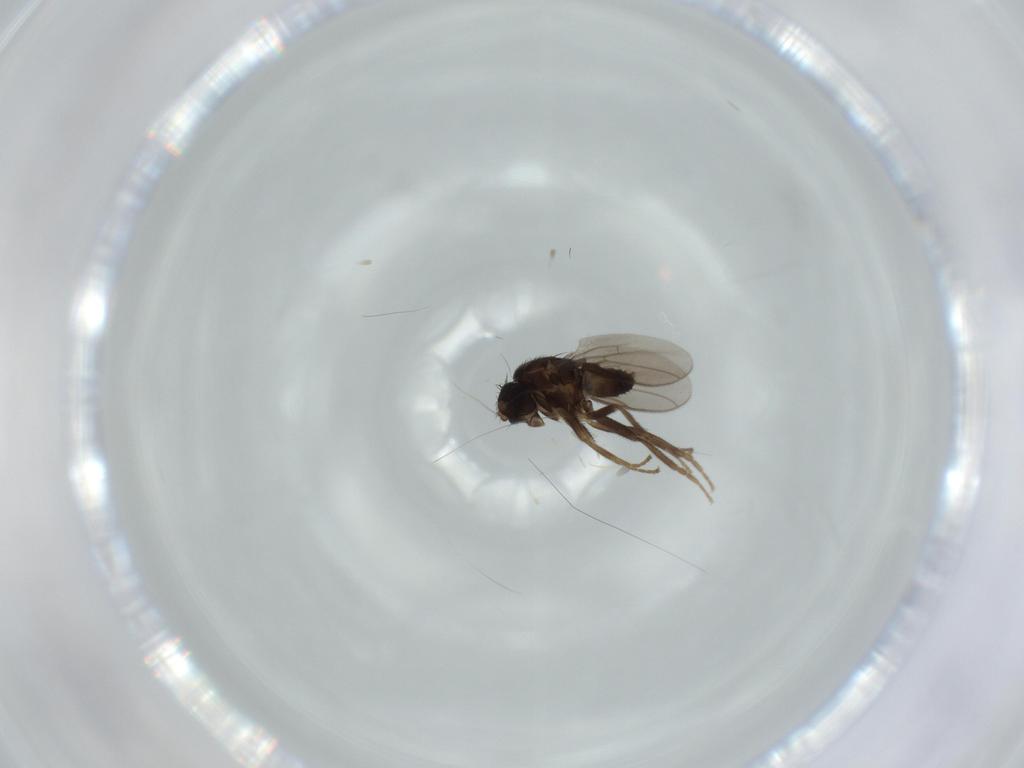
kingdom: Animalia
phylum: Arthropoda
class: Insecta
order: Diptera
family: Sphaeroceridae
